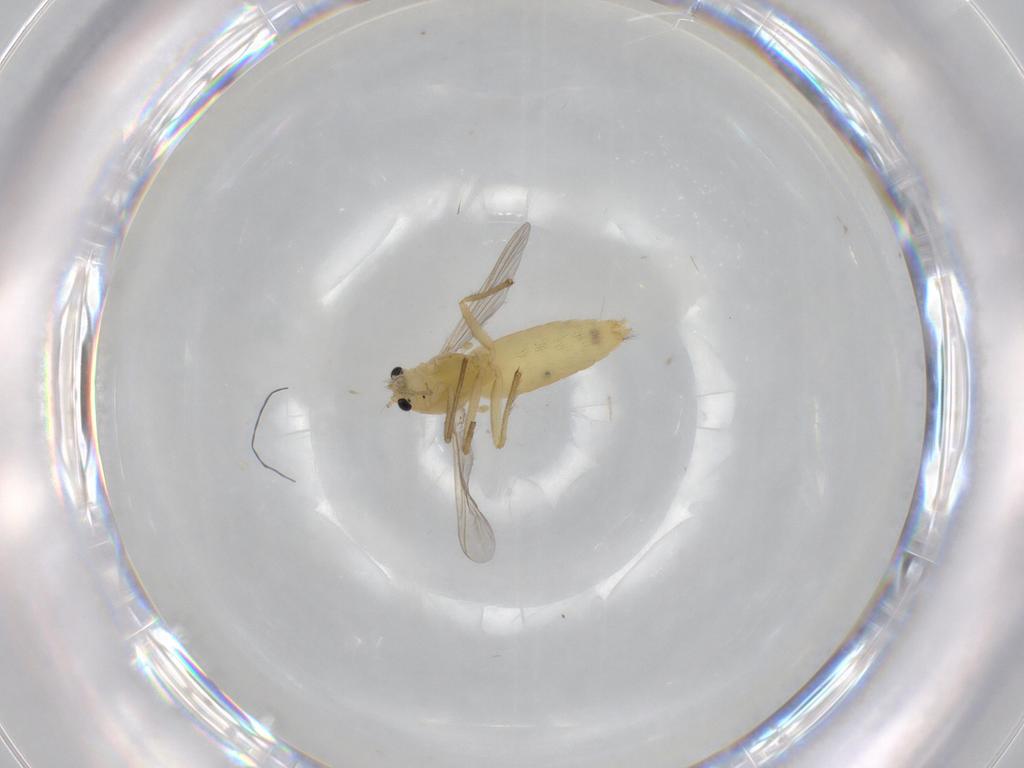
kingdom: Animalia
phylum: Arthropoda
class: Insecta
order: Diptera
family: Chironomidae
